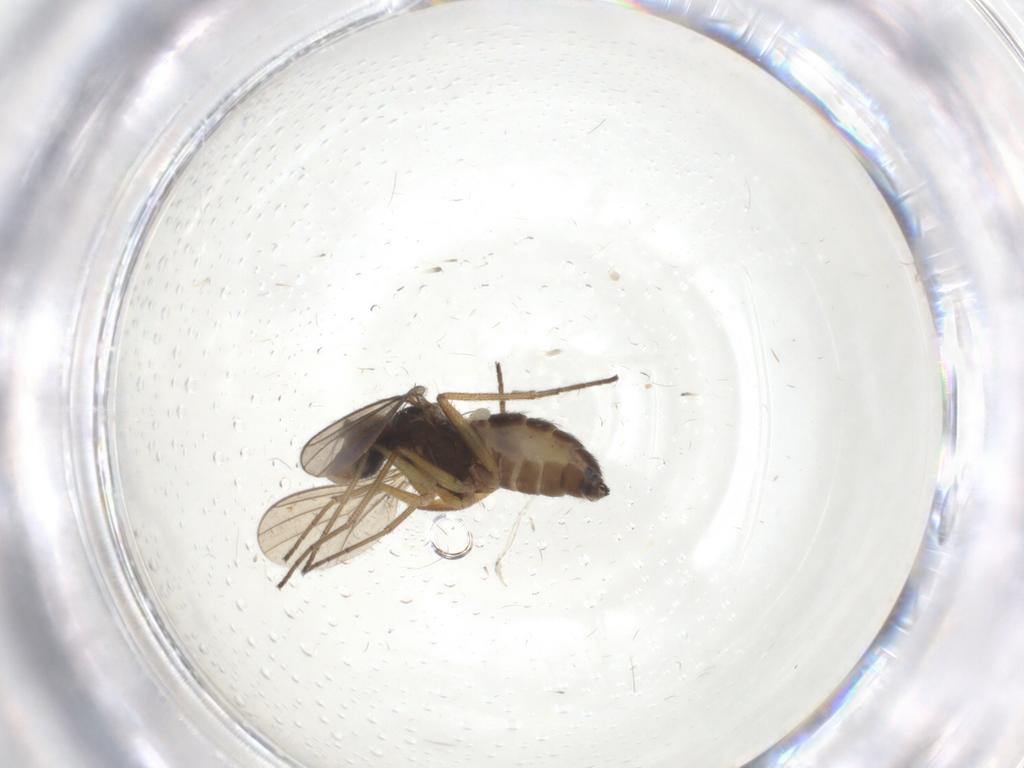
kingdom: Animalia
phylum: Arthropoda
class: Insecta
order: Diptera
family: Dolichopodidae
